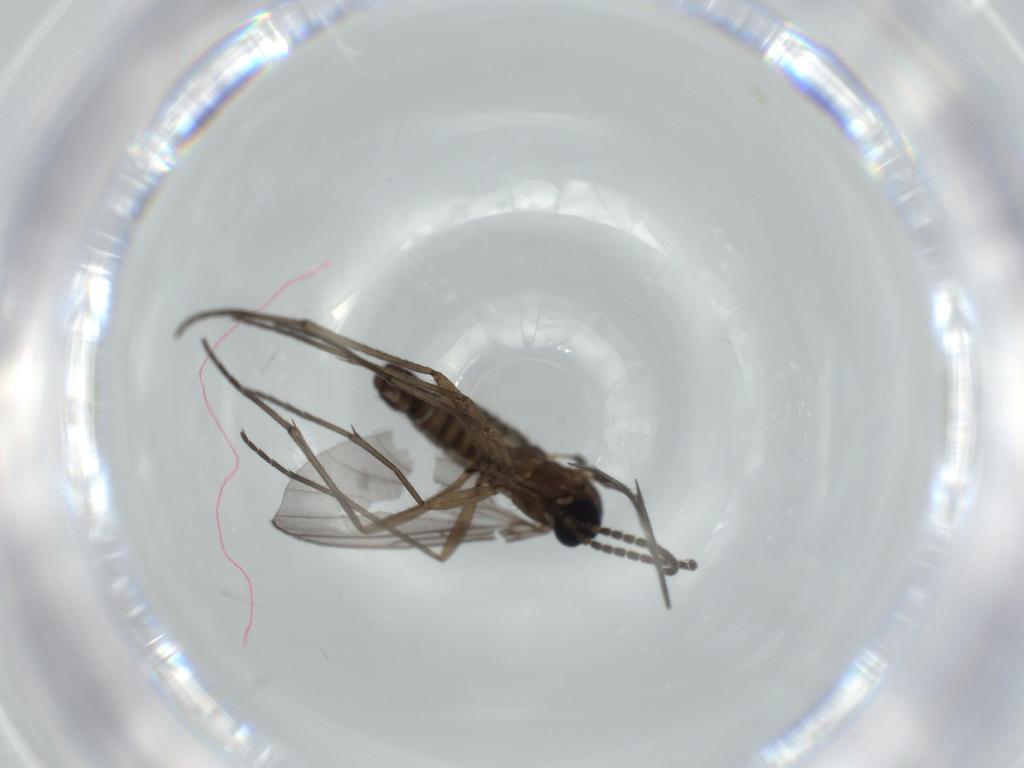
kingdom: Animalia
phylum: Arthropoda
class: Insecta
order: Diptera
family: Sciaridae
